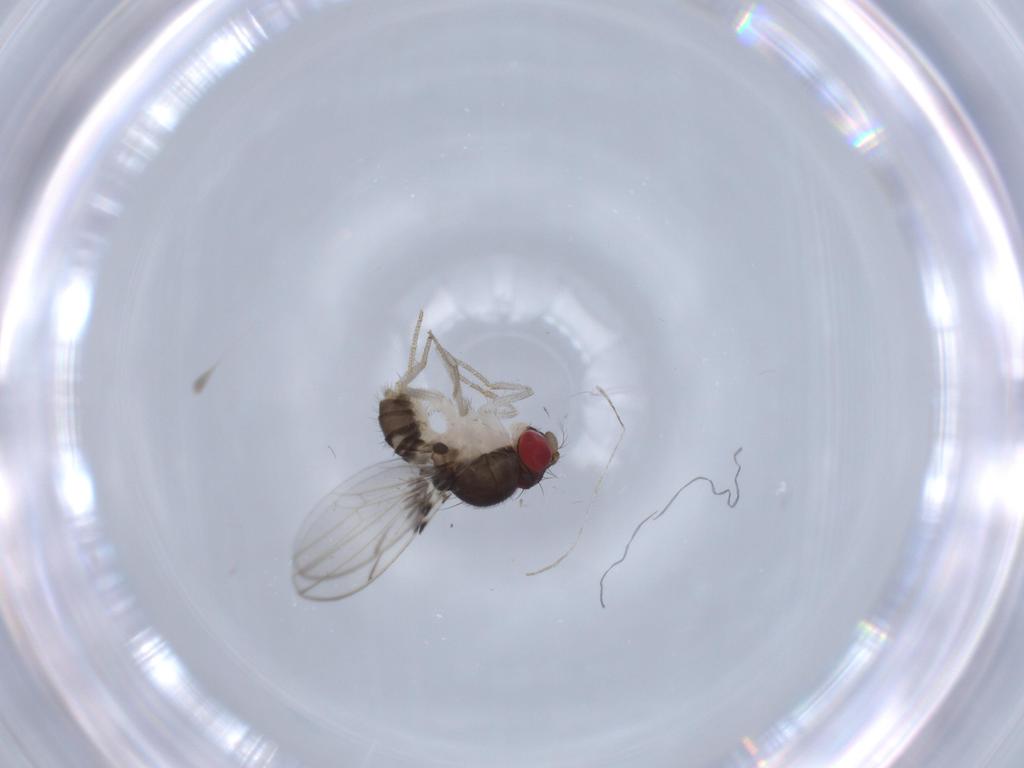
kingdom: Animalia
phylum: Arthropoda
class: Insecta
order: Diptera
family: Drosophilidae
